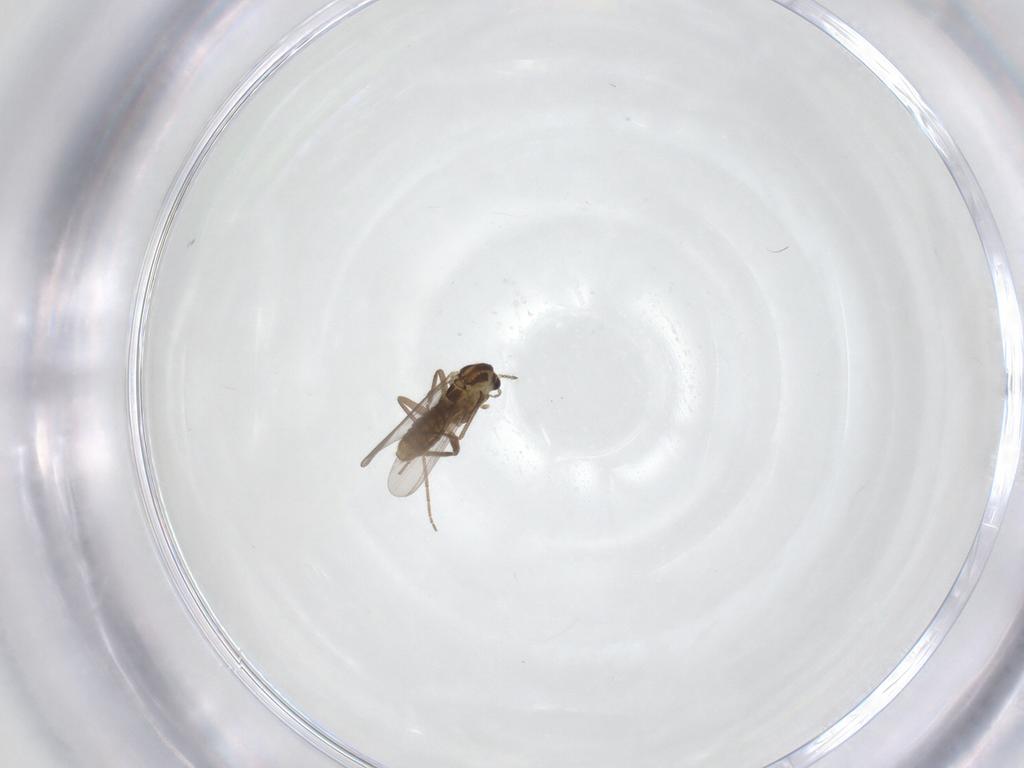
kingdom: Animalia
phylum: Arthropoda
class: Insecta
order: Diptera
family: Chironomidae
